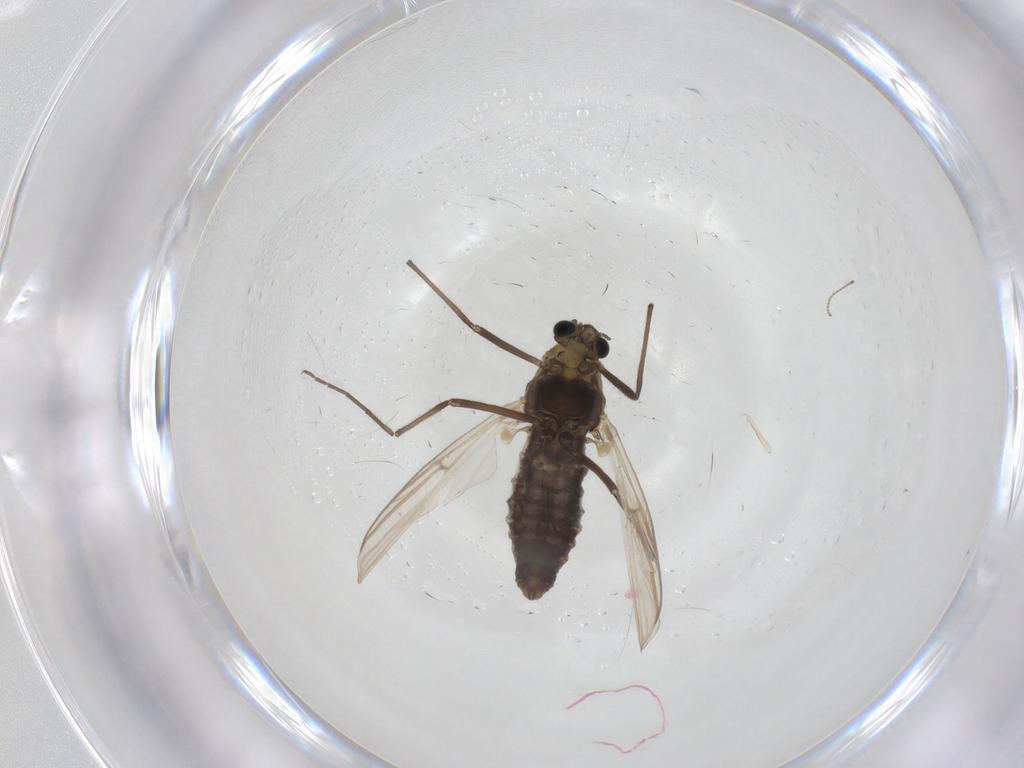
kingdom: Animalia
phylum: Arthropoda
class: Insecta
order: Diptera
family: Chironomidae
